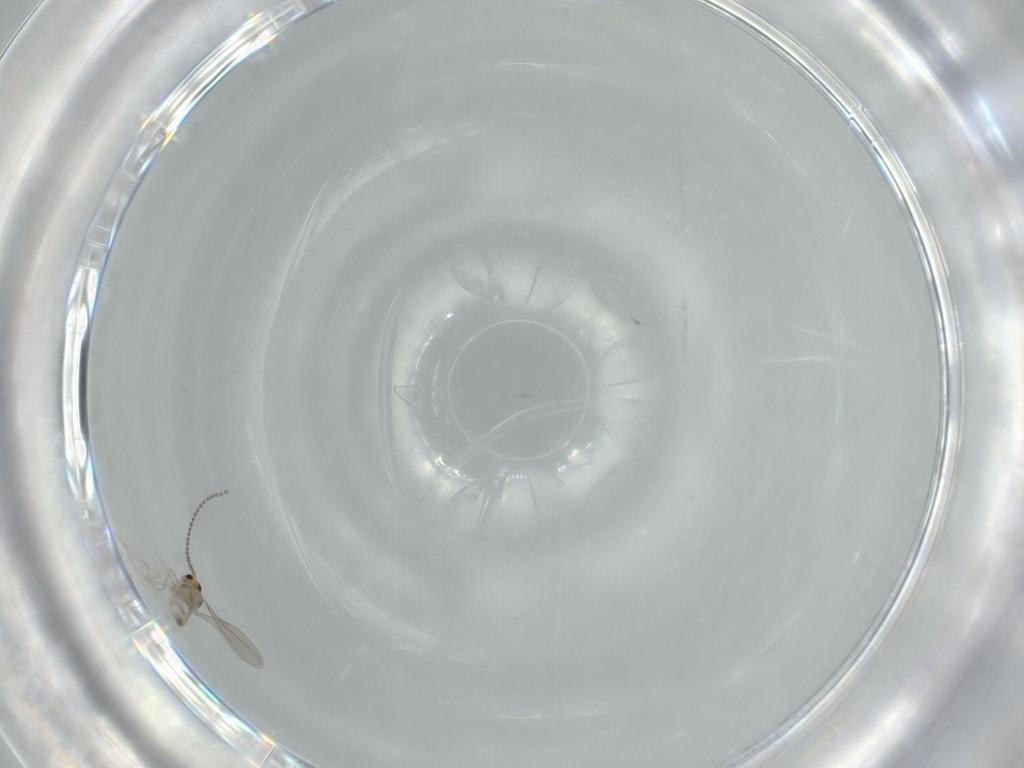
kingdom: Animalia
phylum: Arthropoda
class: Insecta
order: Diptera
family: Cecidomyiidae
